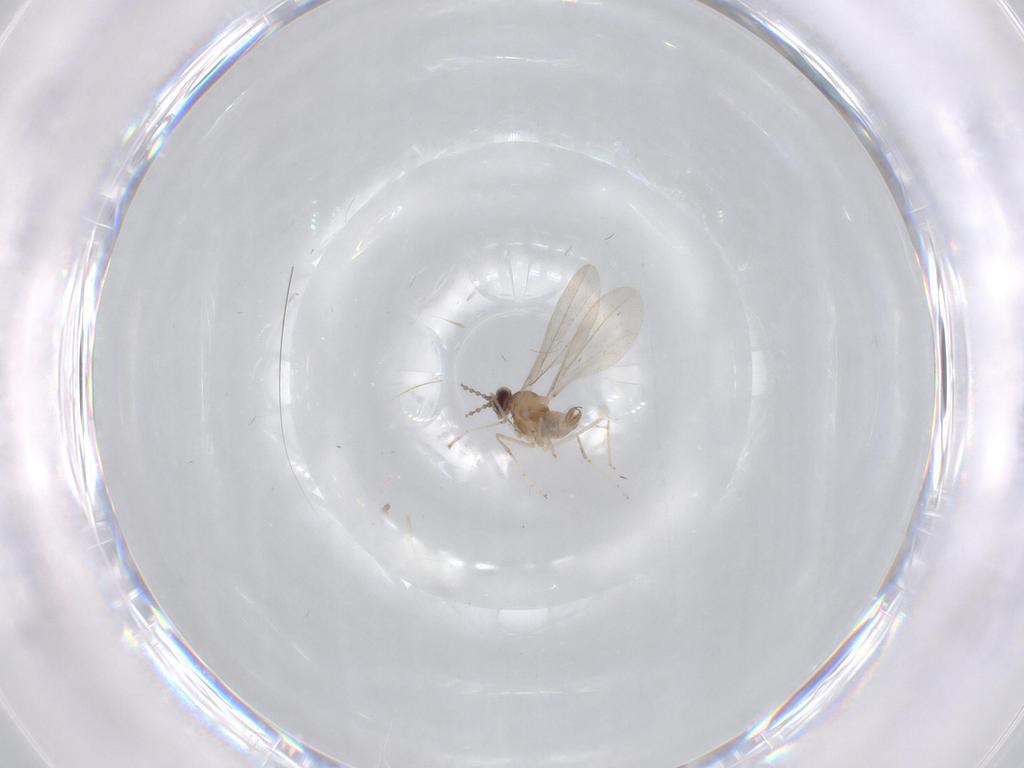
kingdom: Animalia
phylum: Arthropoda
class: Insecta
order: Diptera
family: Cecidomyiidae
